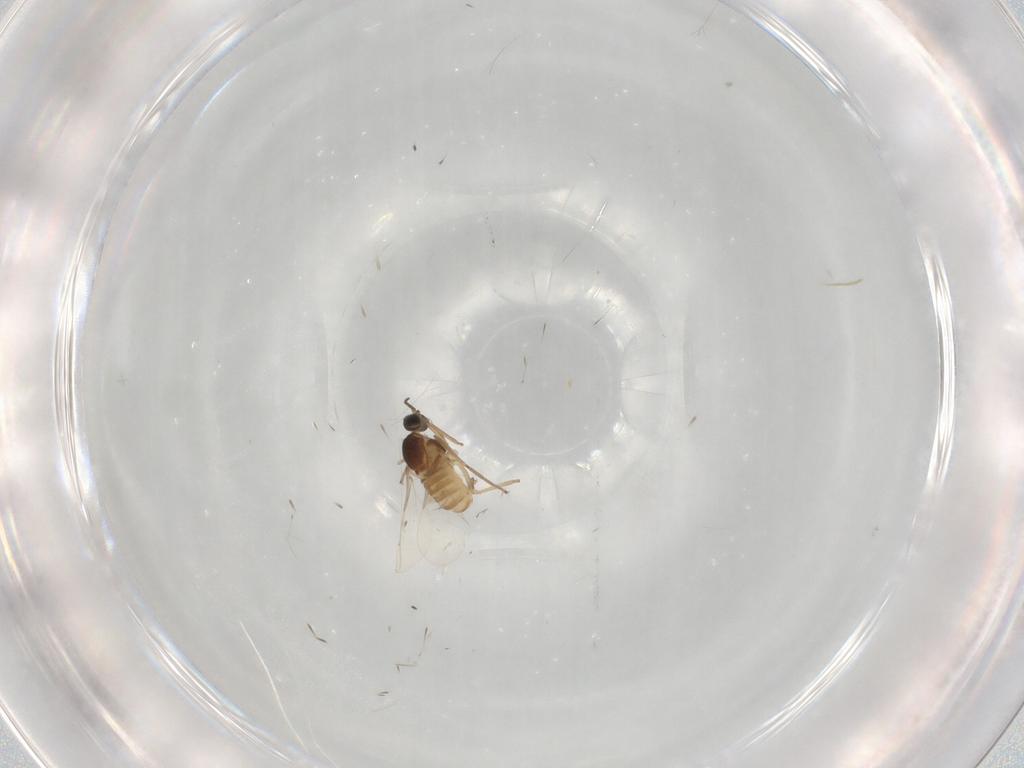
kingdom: Animalia
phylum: Arthropoda
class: Insecta
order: Diptera
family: Cecidomyiidae
